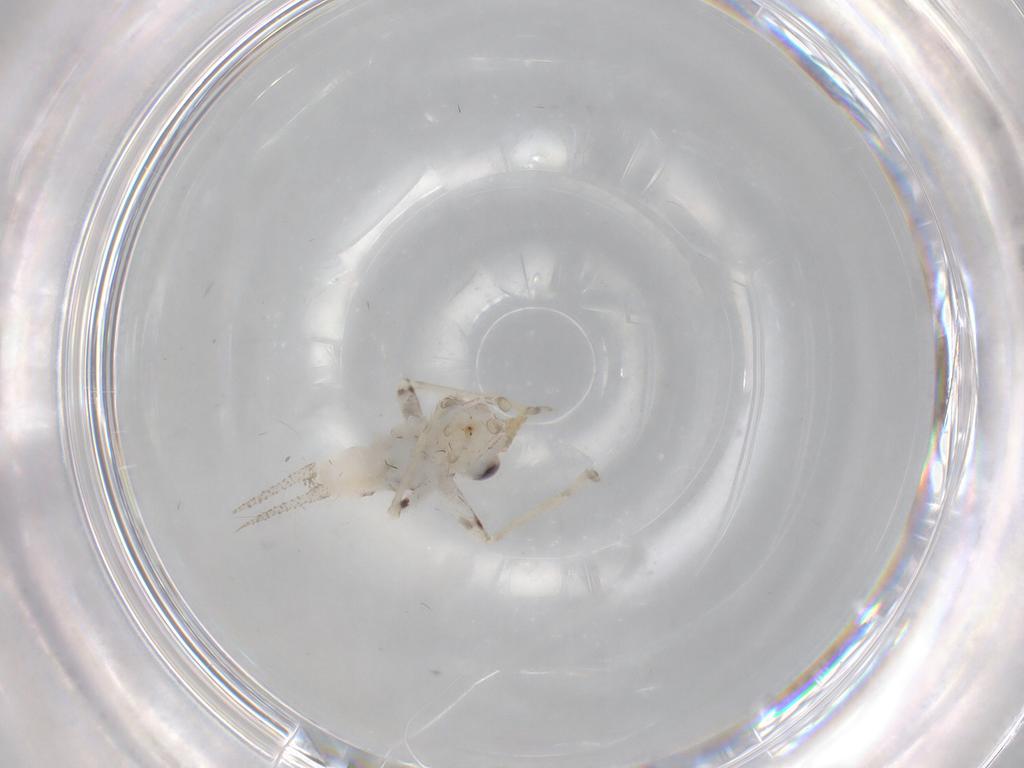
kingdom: Animalia
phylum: Arthropoda
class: Insecta
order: Orthoptera
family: Trigonidiidae
